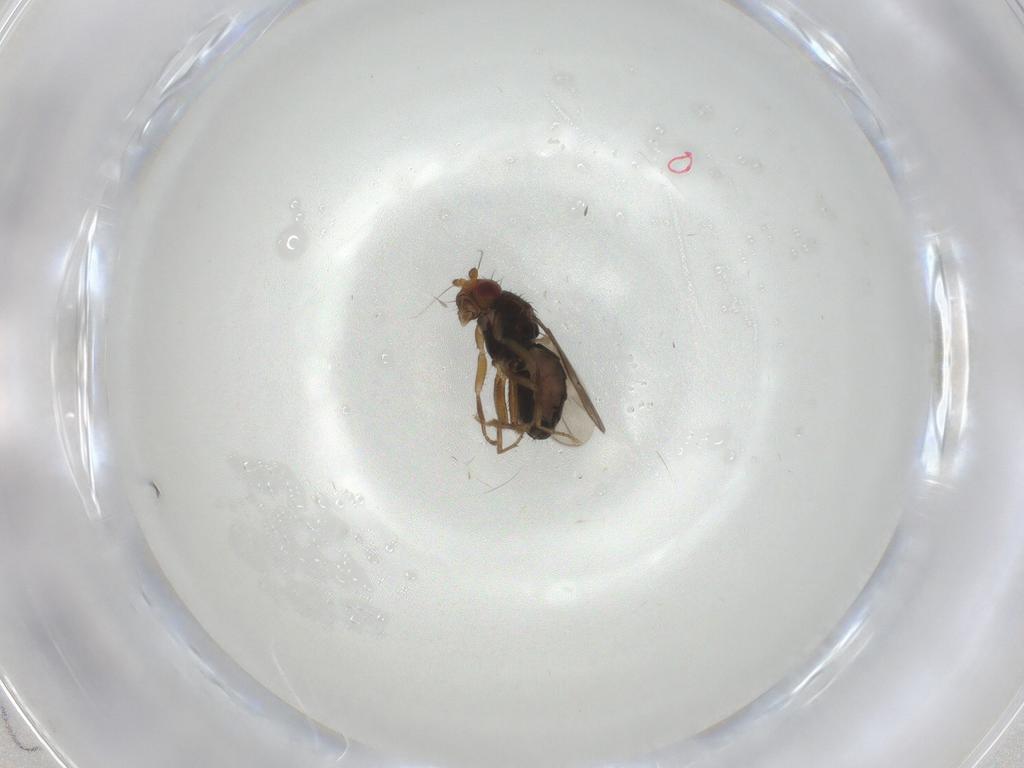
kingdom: Animalia
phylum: Arthropoda
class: Insecta
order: Diptera
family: Sphaeroceridae
